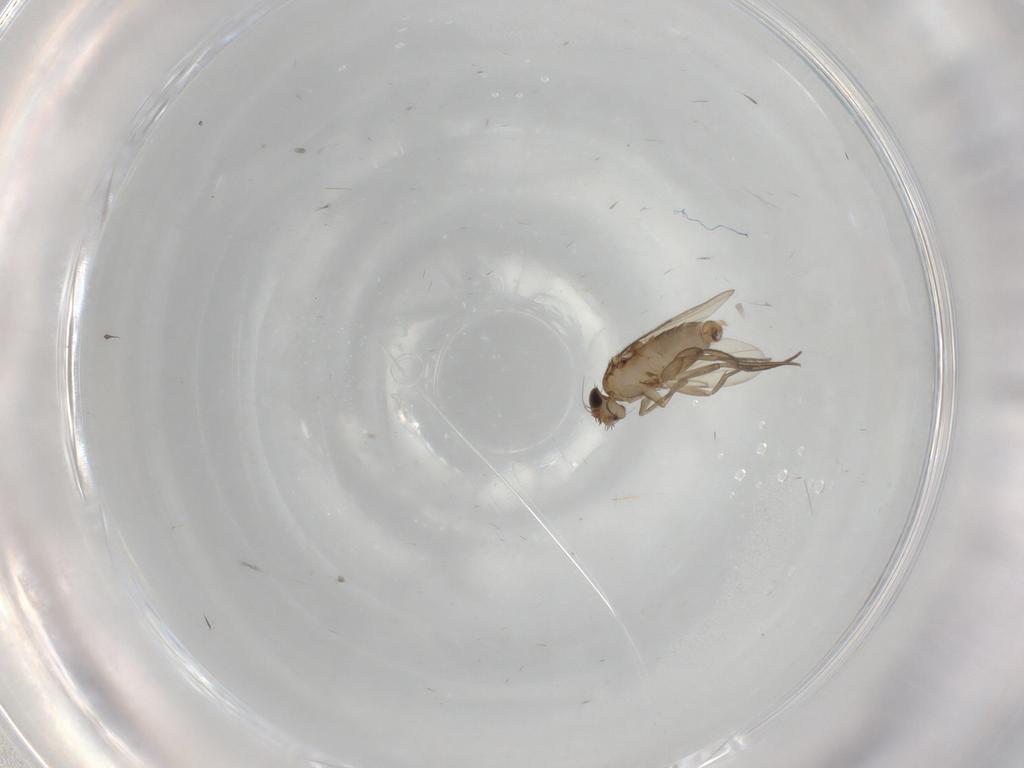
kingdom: Animalia
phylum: Arthropoda
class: Insecta
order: Diptera
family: Phoridae
